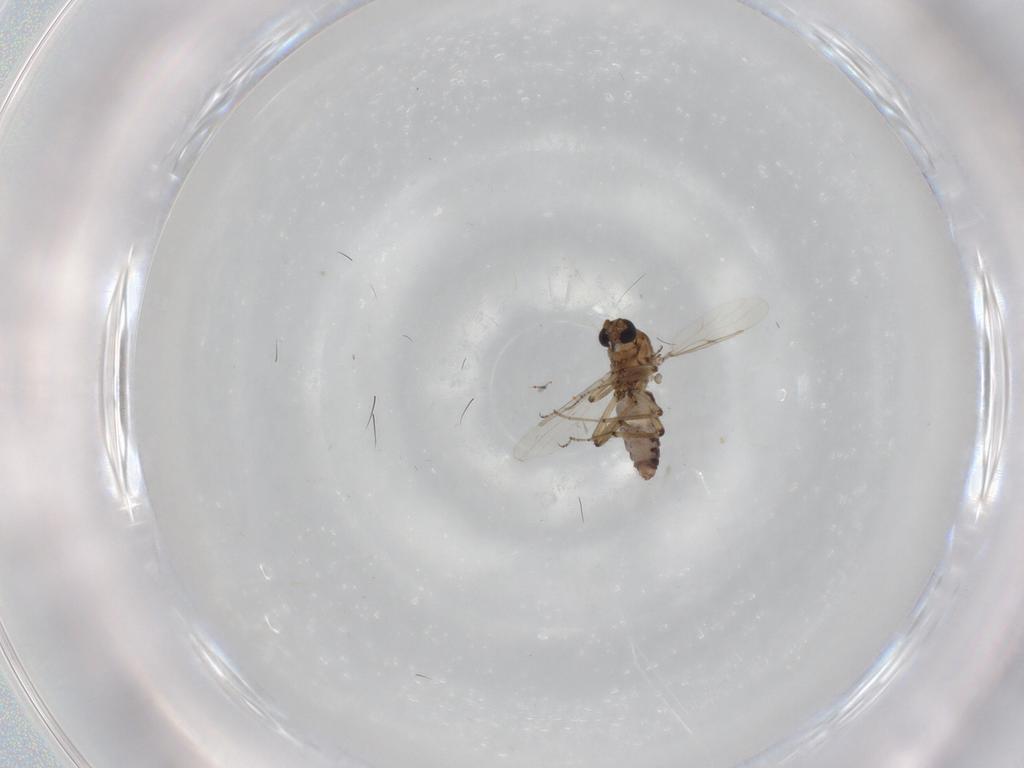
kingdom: Animalia
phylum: Arthropoda
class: Insecta
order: Diptera
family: Ceratopogonidae
